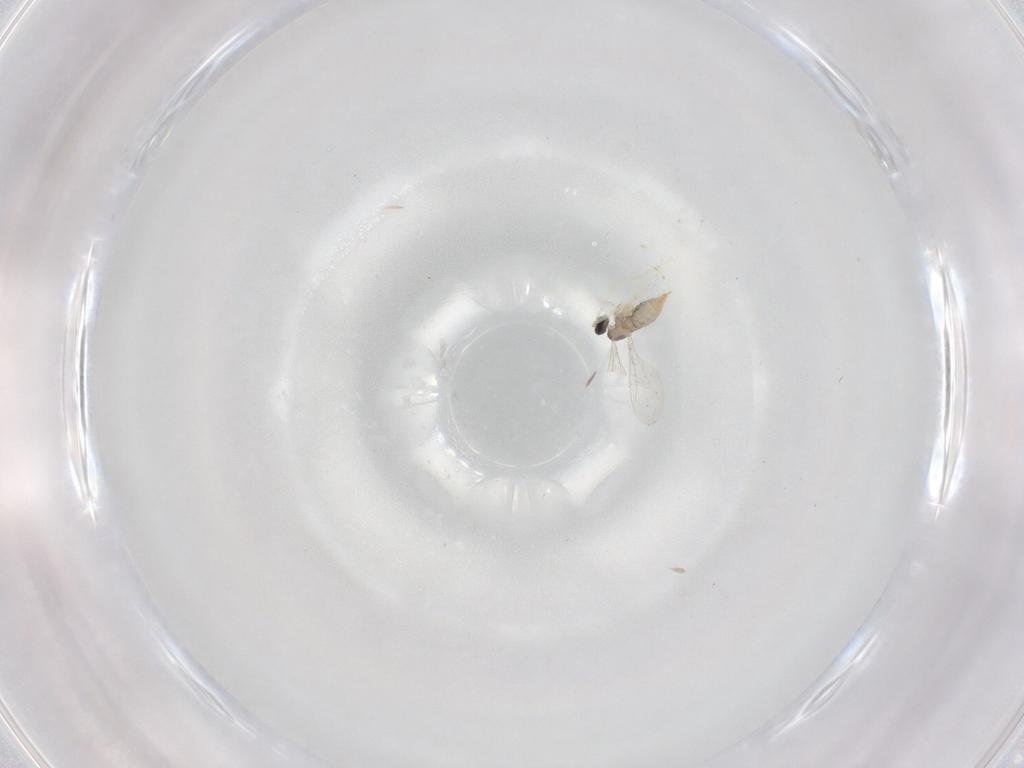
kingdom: Animalia
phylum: Arthropoda
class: Insecta
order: Diptera
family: Cecidomyiidae
